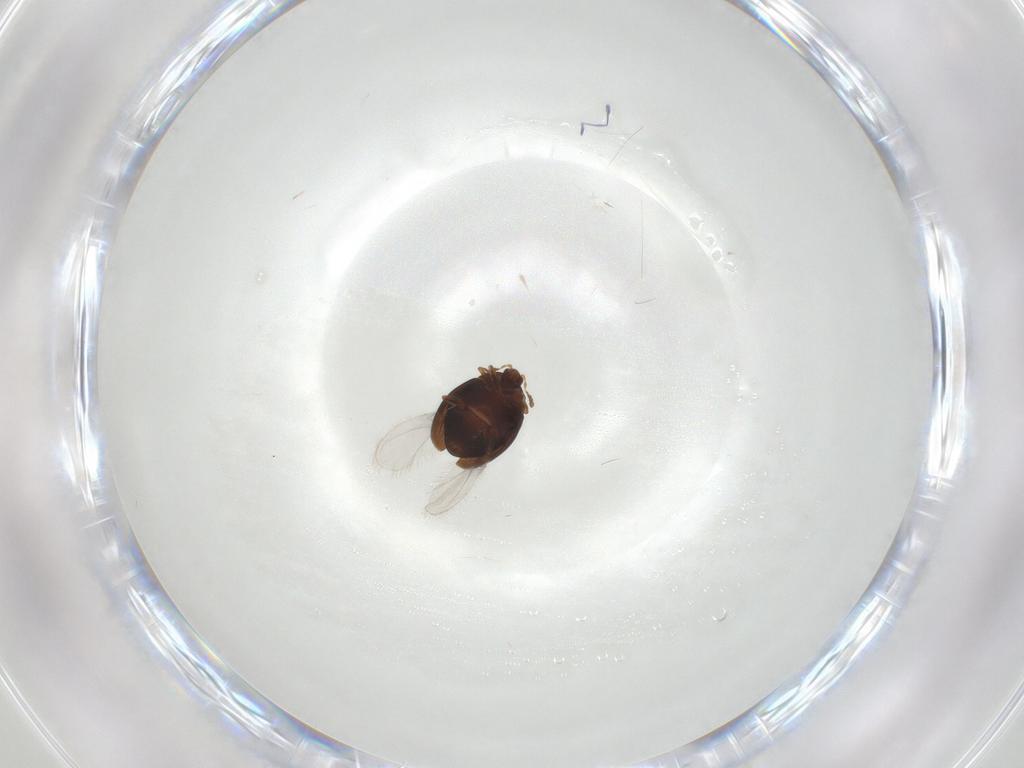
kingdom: Animalia
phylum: Arthropoda
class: Insecta
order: Coleoptera
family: Corylophidae
